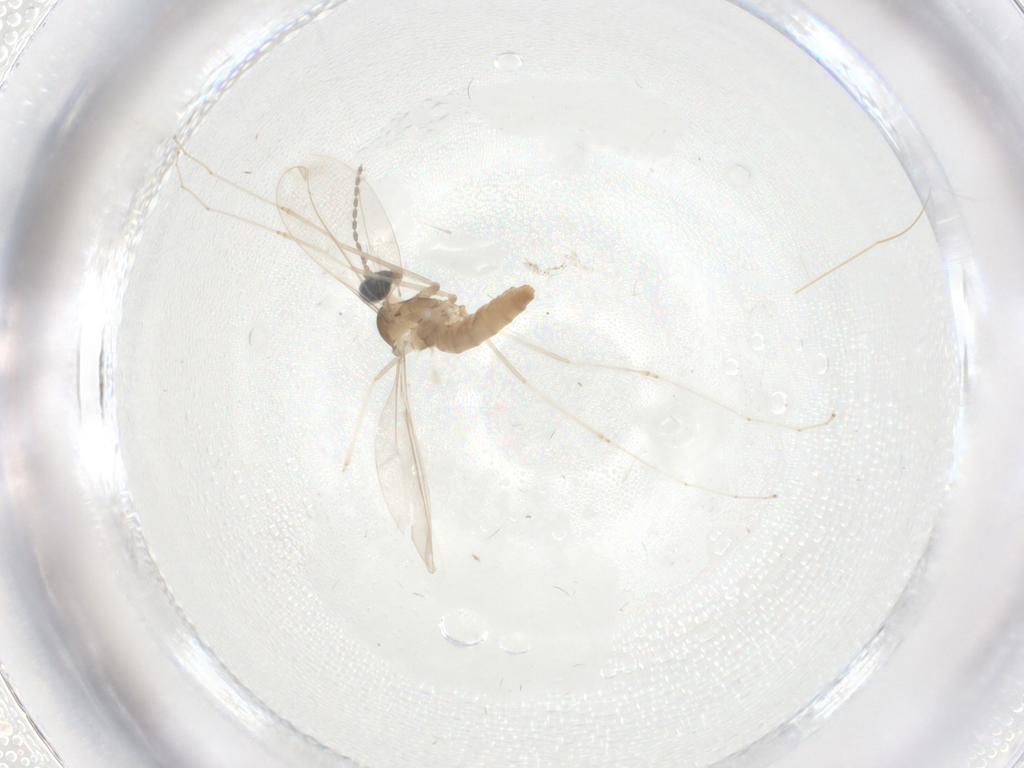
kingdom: Animalia
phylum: Arthropoda
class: Insecta
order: Diptera
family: Cecidomyiidae
